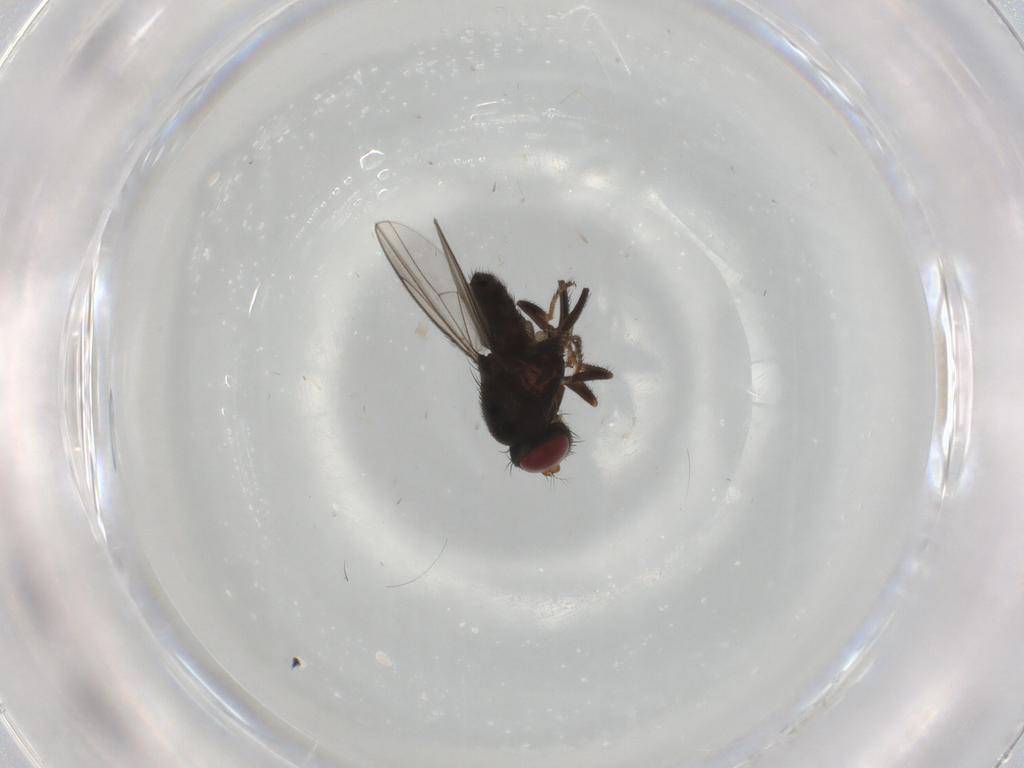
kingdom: Animalia
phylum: Arthropoda
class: Insecta
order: Diptera
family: Ephydridae
